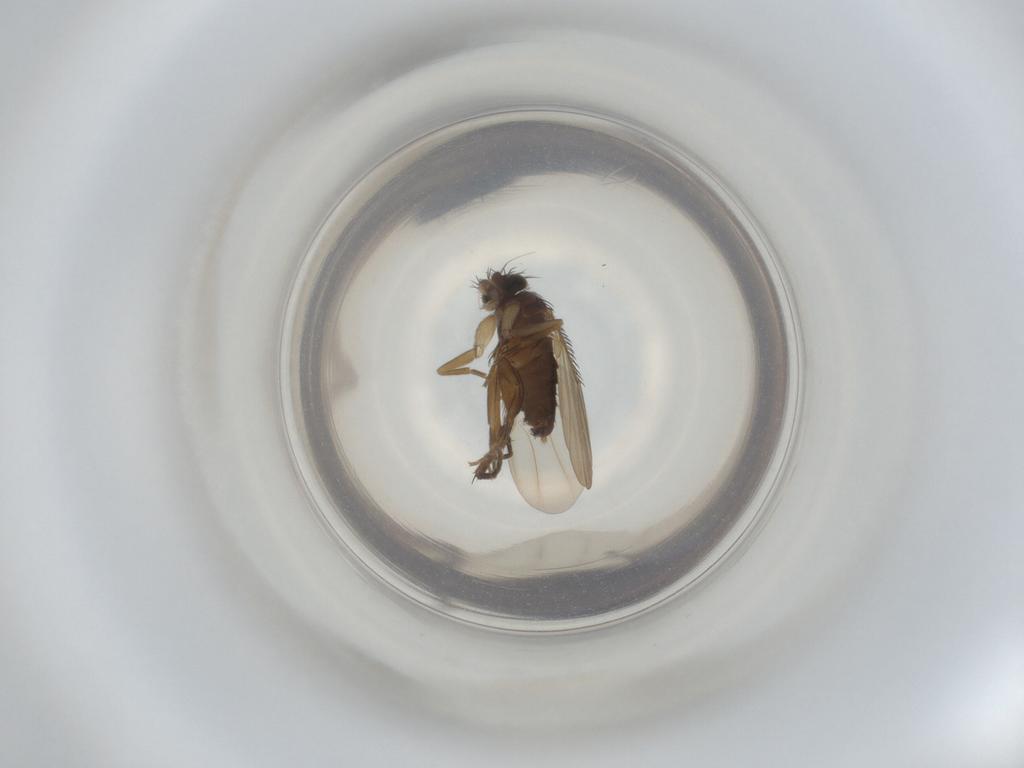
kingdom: Animalia
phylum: Arthropoda
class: Insecta
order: Diptera
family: Phoridae
